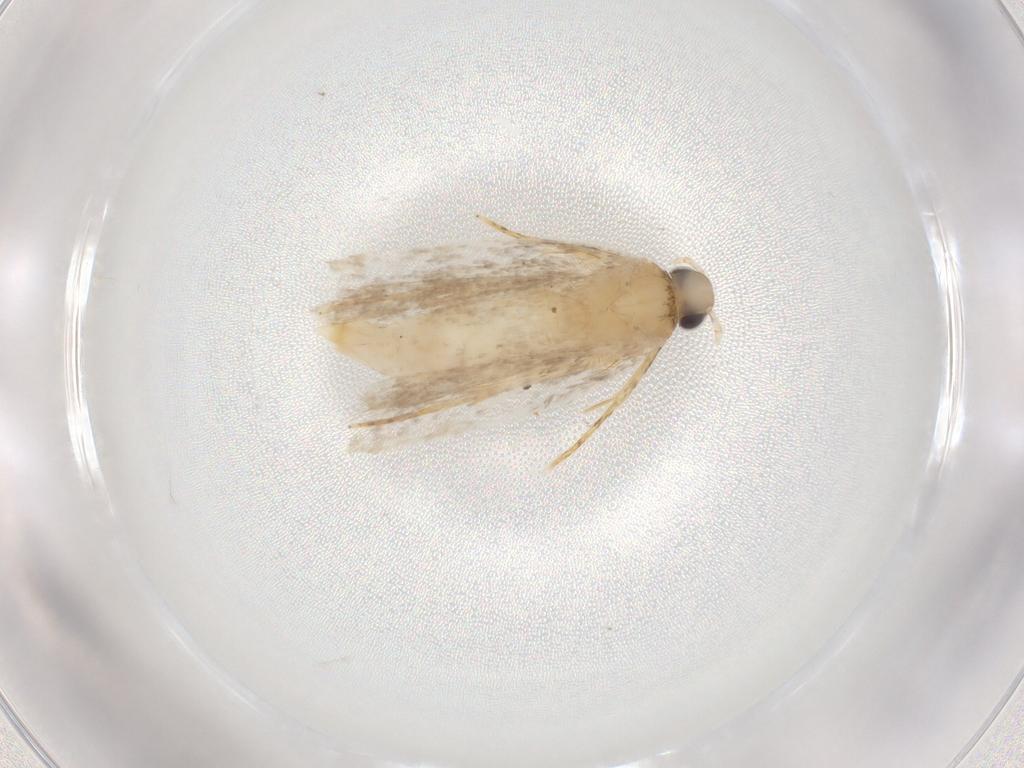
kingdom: Animalia
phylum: Arthropoda
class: Insecta
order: Lepidoptera
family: Autostichidae
